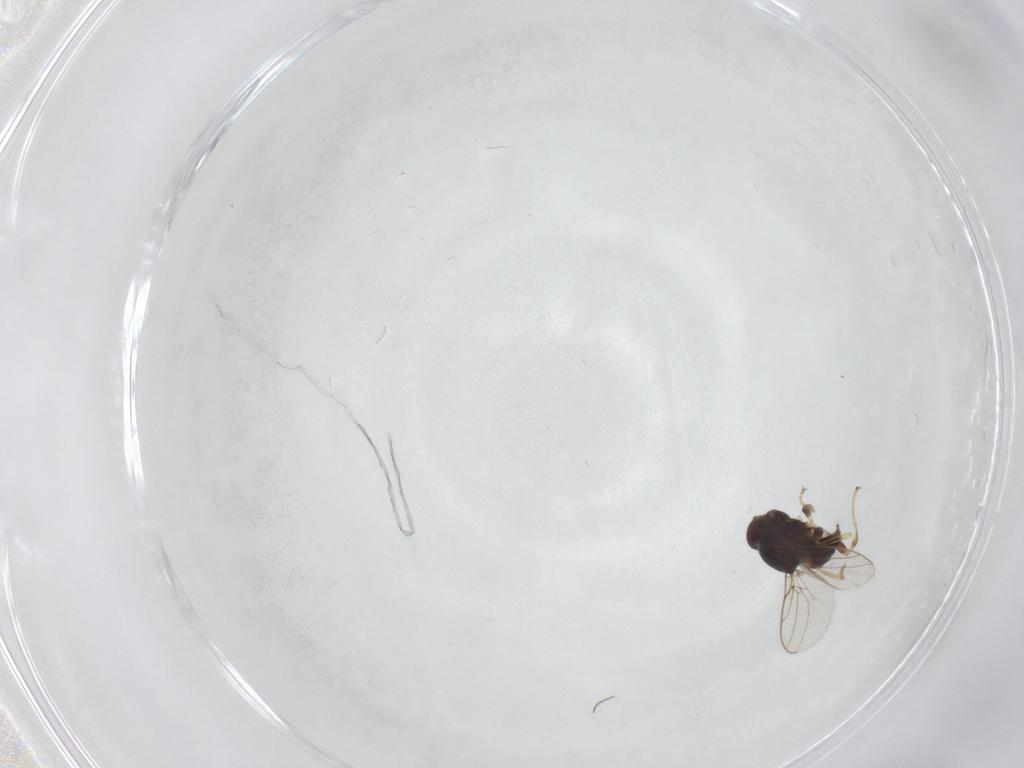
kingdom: Animalia
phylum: Arthropoda
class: Insecta
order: Diptera
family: Chloropidae
